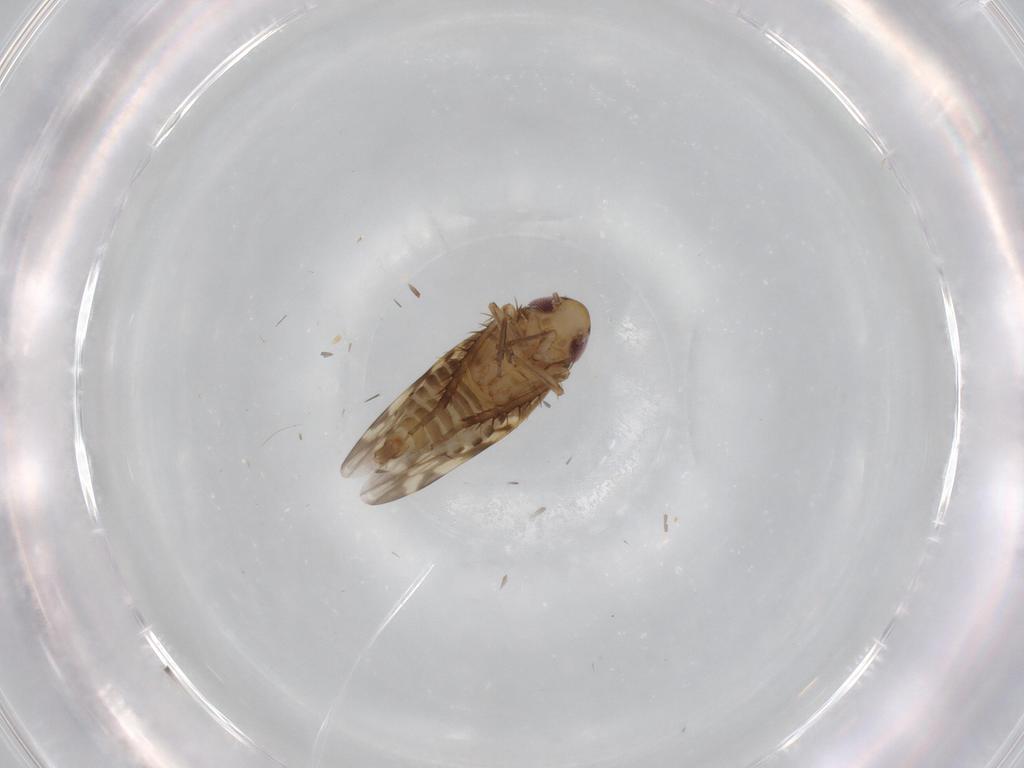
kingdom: Animalia
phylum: Arthropoda
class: Insecta
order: Hemiptera
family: Cicadellidae
